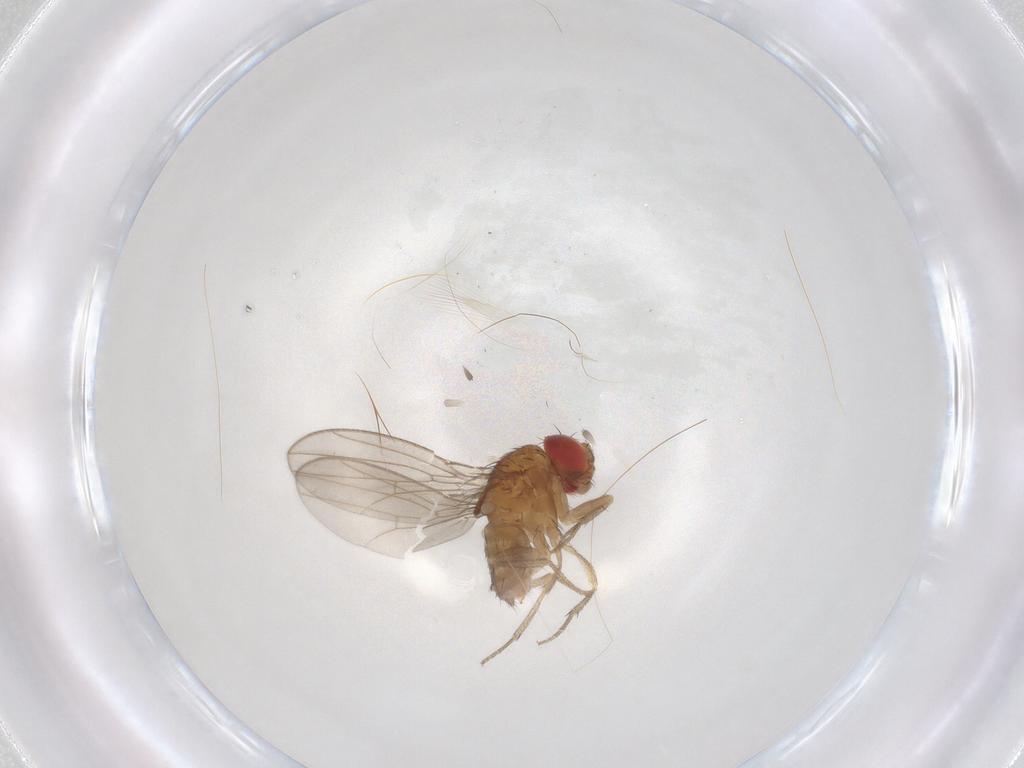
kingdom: Animalia
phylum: Arthropoda
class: Insecta
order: Diptera
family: Drosophilidae
